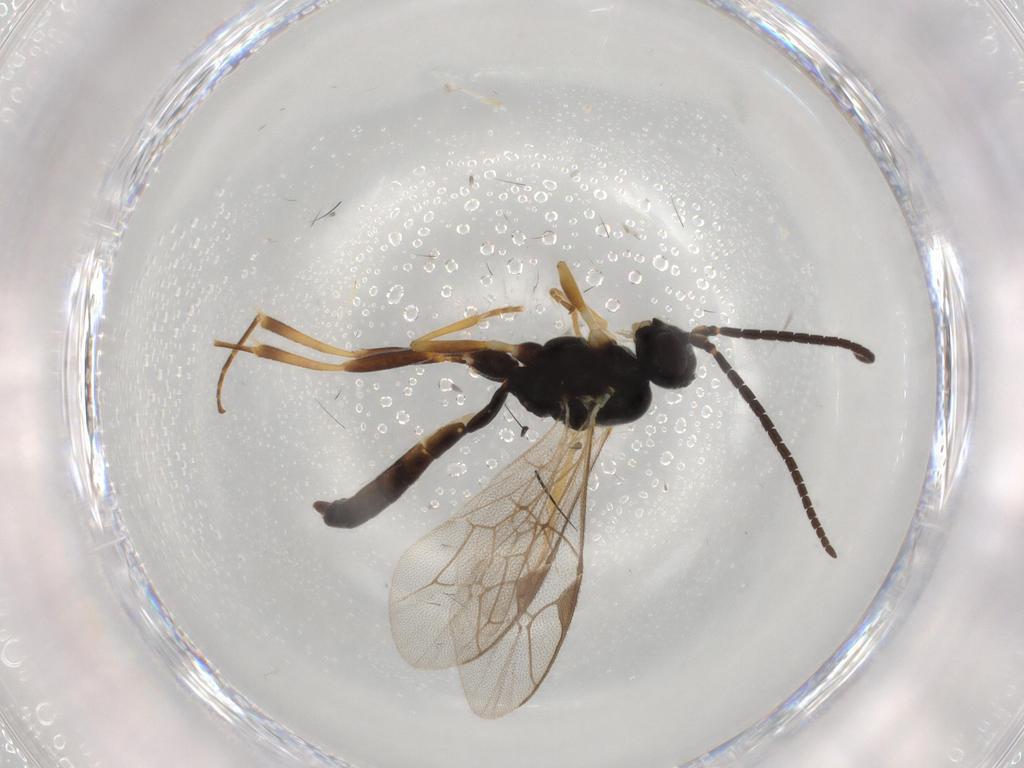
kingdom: Animalia
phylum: Arthropoda
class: Insecta
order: Hymenoptera
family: Ichneumonidae
